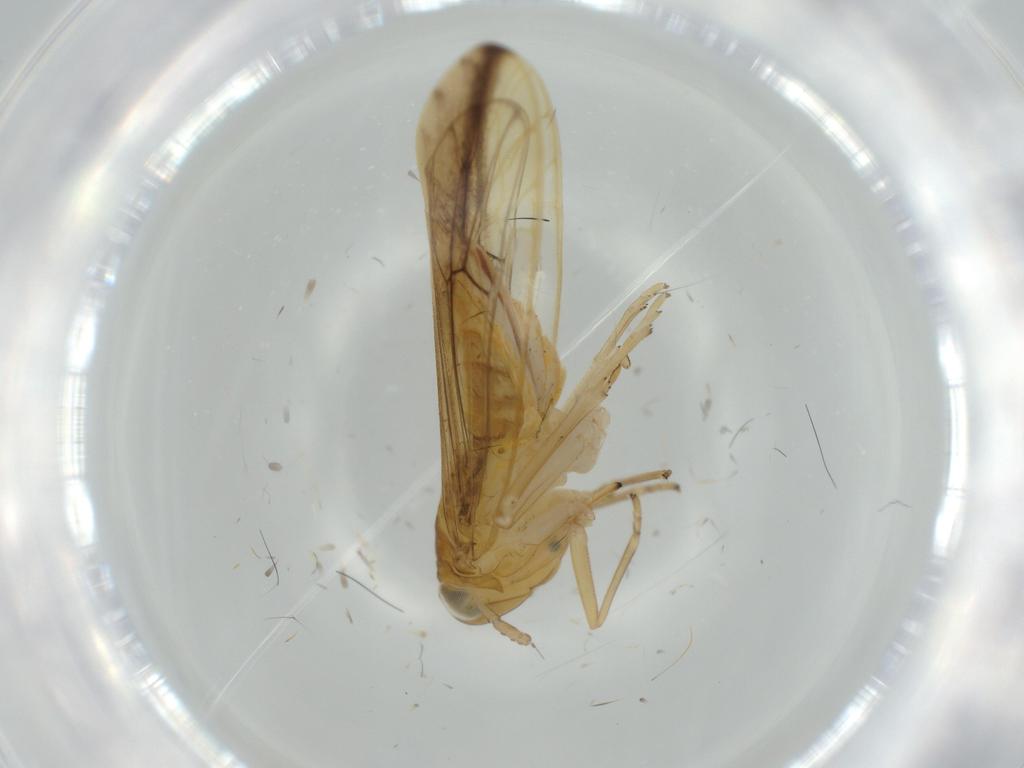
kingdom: Animalia
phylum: Arthropoda
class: Insecta
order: Hemiptera
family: Delphacidae
